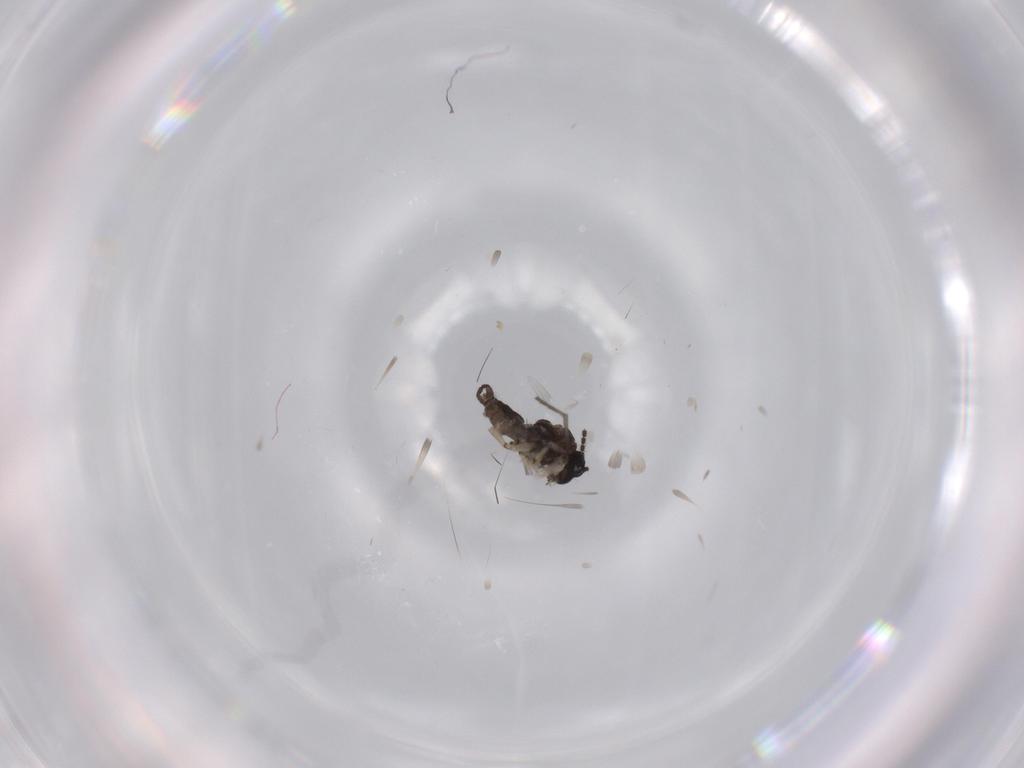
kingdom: Animalia
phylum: Arthropoda
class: Insecta
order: Diptera
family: Sciaridae
